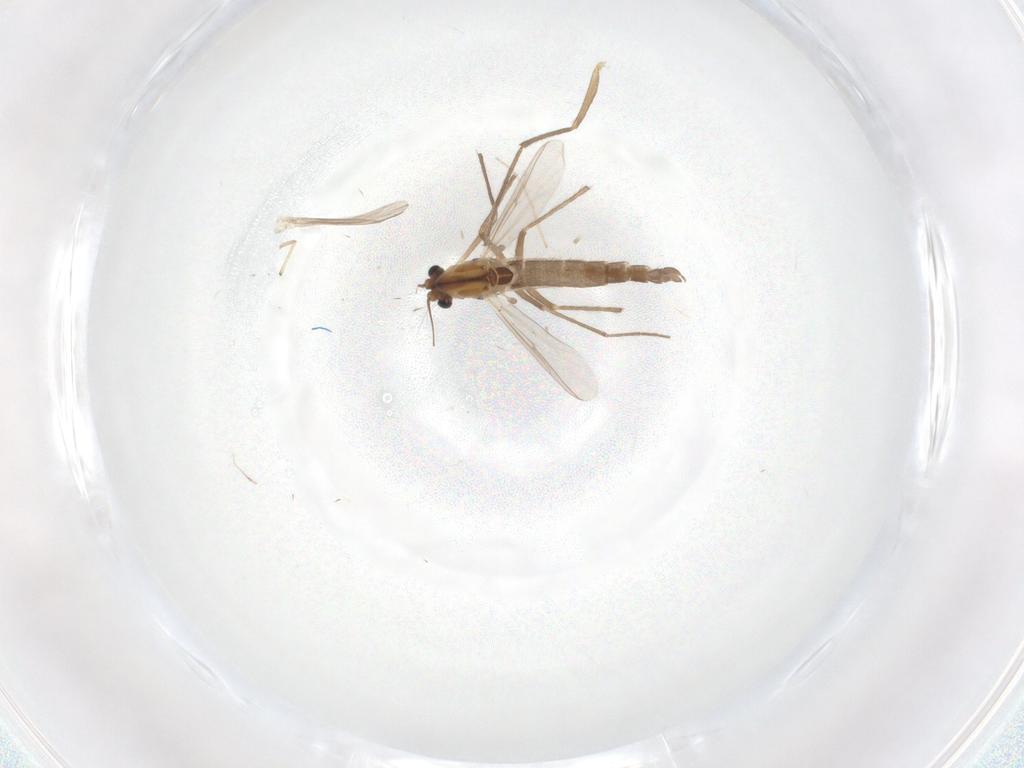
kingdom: Animalia
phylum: Arthropoda
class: Insecta
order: Diptera
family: Chironomidae
